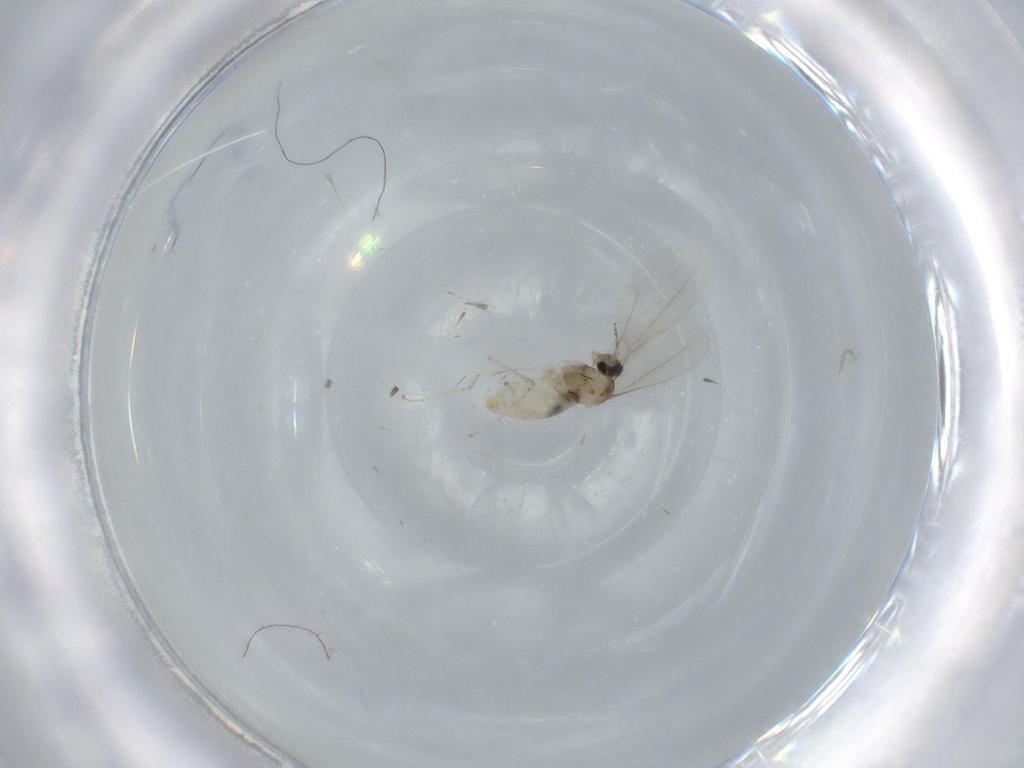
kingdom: Animalia
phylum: Arthropoda
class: Insecta
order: Diptera
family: Cecidomyiidae
